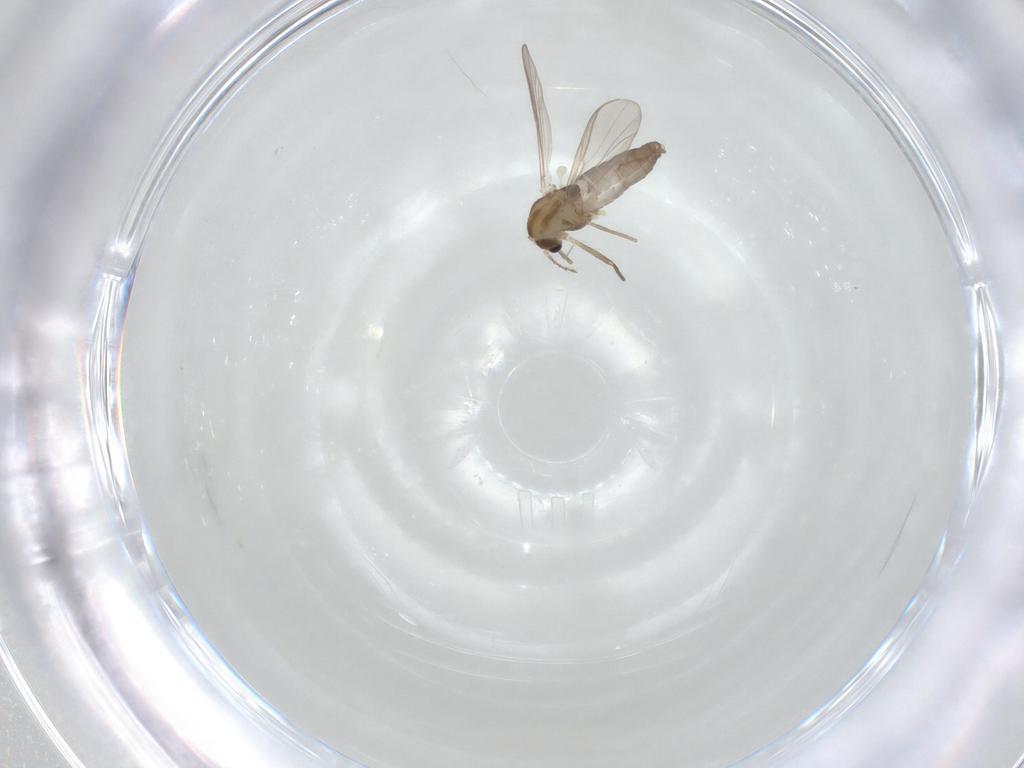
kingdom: Animalia
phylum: Arthropoda
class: Insecta
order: Diptera
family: Chironomidae
